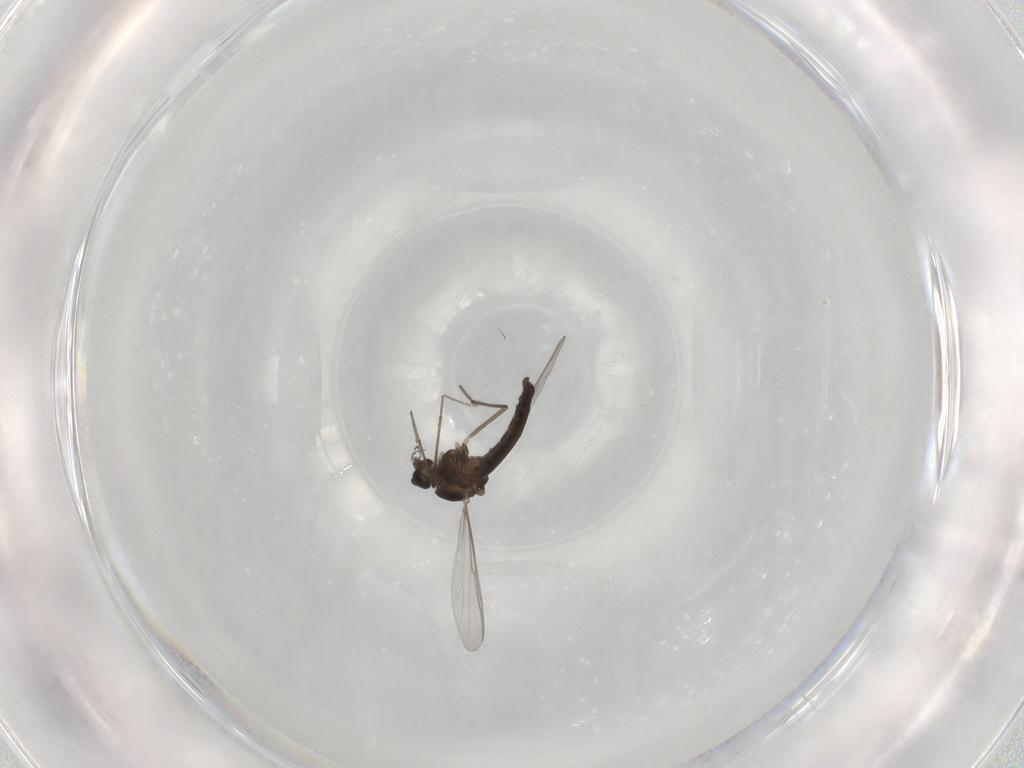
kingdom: Animalia
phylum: Arthropoda
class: Insecta
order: Diptera
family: Chironomidae
